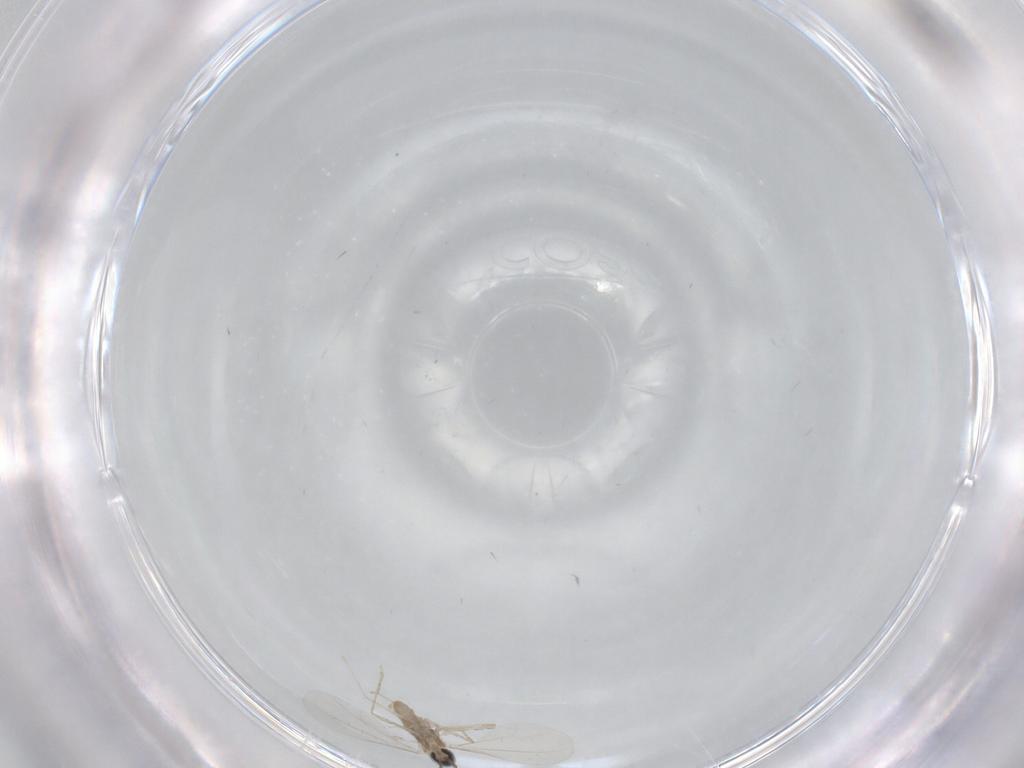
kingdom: Animalia
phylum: Arthropoda
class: Insecta
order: Diptera
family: Cecidomyiidae
